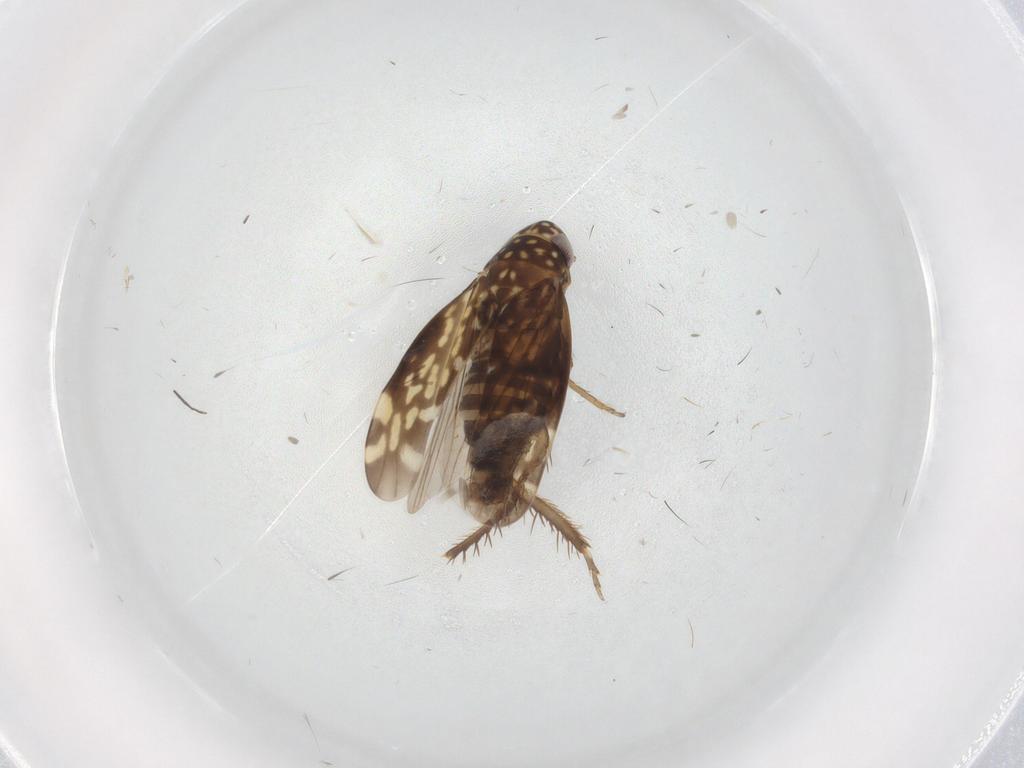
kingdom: Animalia
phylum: Arthropoda
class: Insecta
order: Hemiptera
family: Cicadellidae
